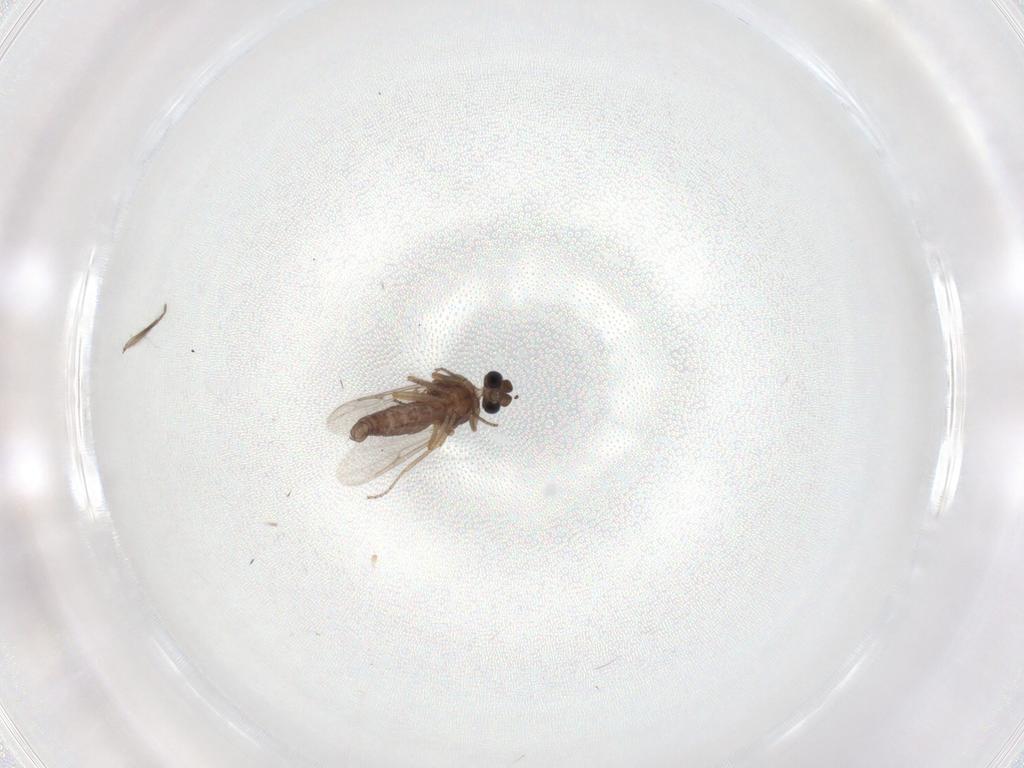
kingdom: Animalia
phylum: Arthropoda
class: Insecta
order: Diptera
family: Ceratopogonidae
